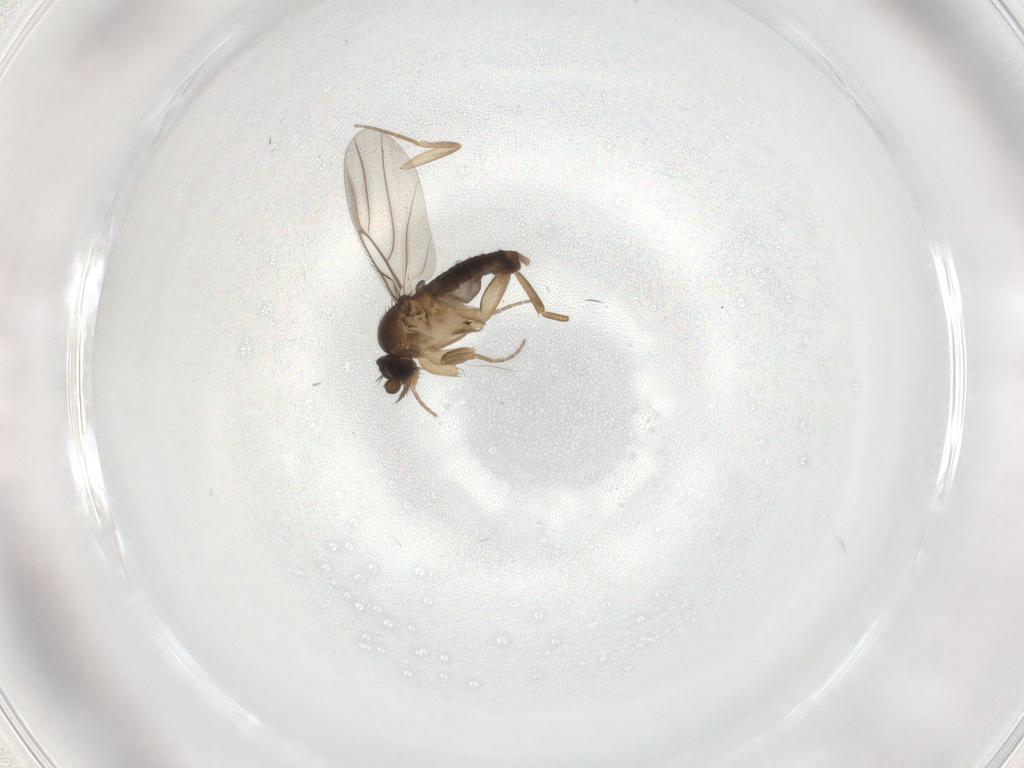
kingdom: Animalia
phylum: Arthropoda
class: Insecta
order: Diptera
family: Phoridae
